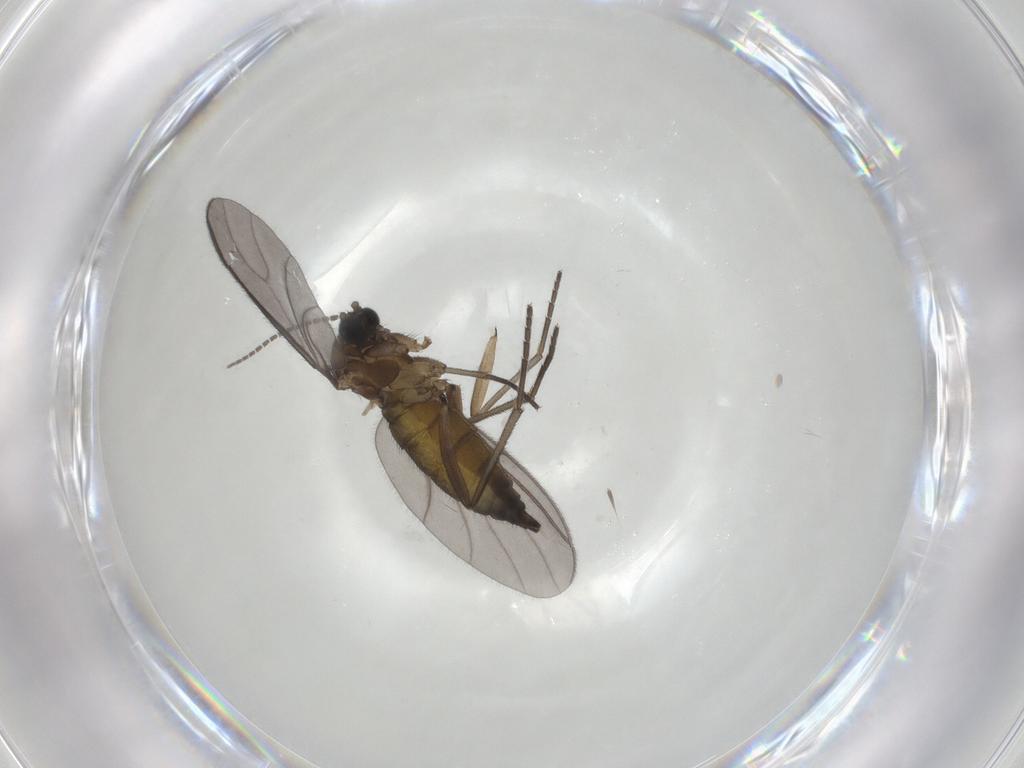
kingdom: Animalia
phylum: Arthropoda
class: Insecta
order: Diptera
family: Sciaridae
